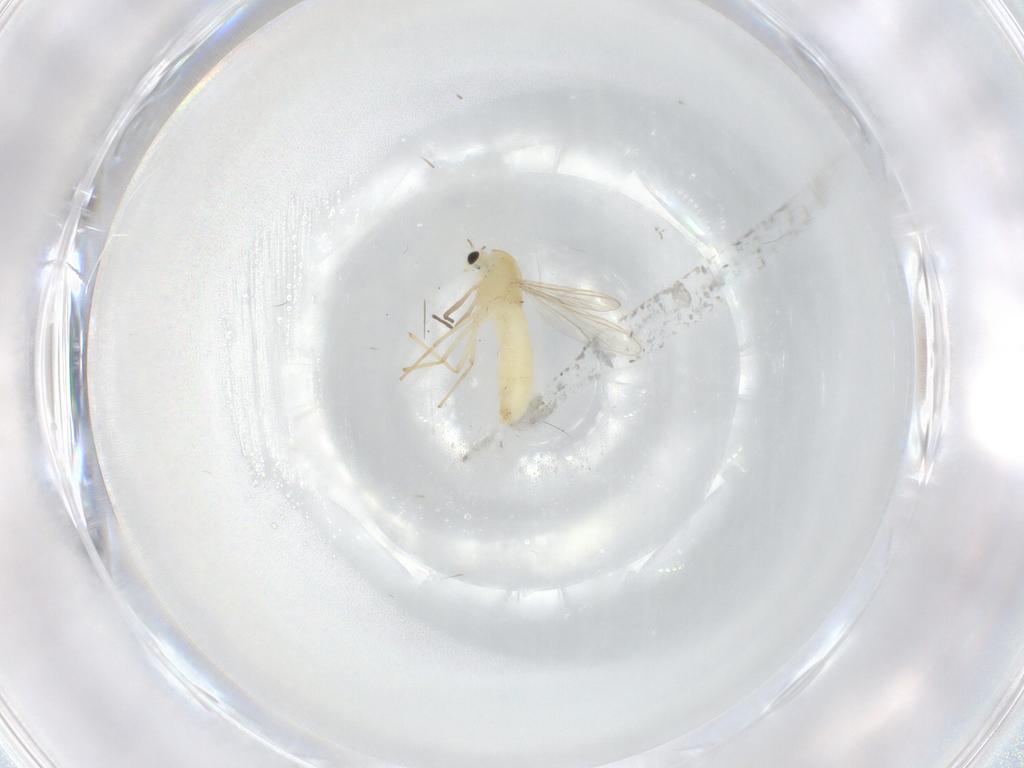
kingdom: Animalia
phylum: Arthropoda
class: Insecta
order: Diptera
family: Chironomidae
